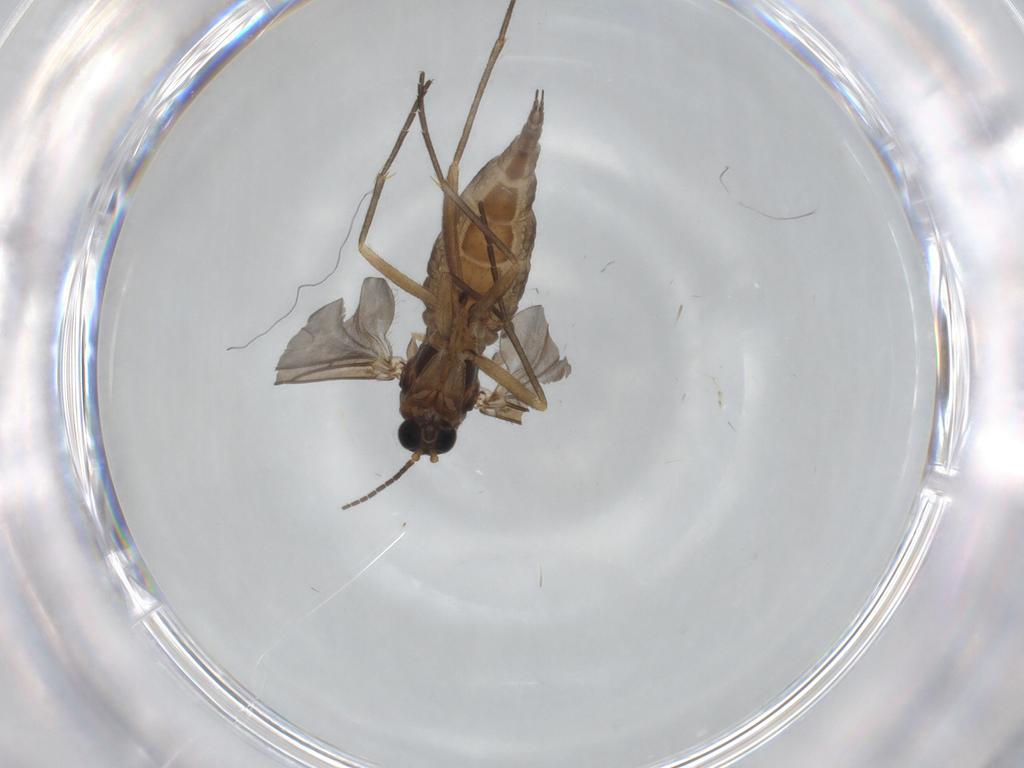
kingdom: Animalia
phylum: Arthropoda
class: Insecta
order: Diptera
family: Sciaridae
